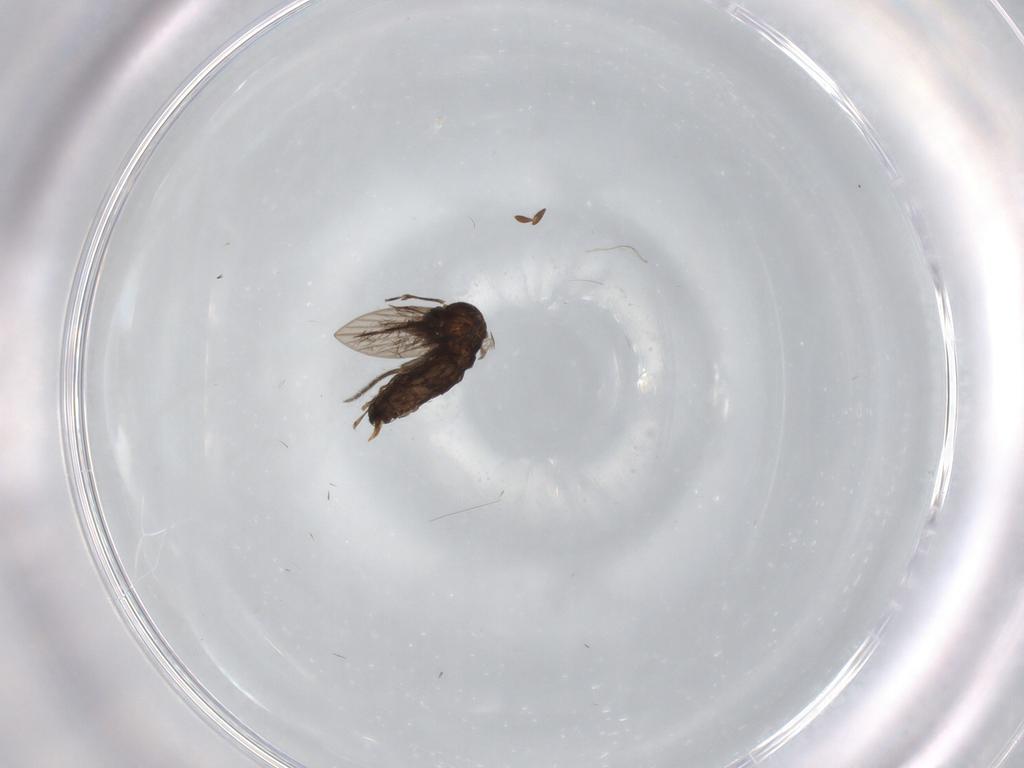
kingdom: Animalia
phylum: Arthropoda
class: Insecta
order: Diptera
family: Psychodidae
